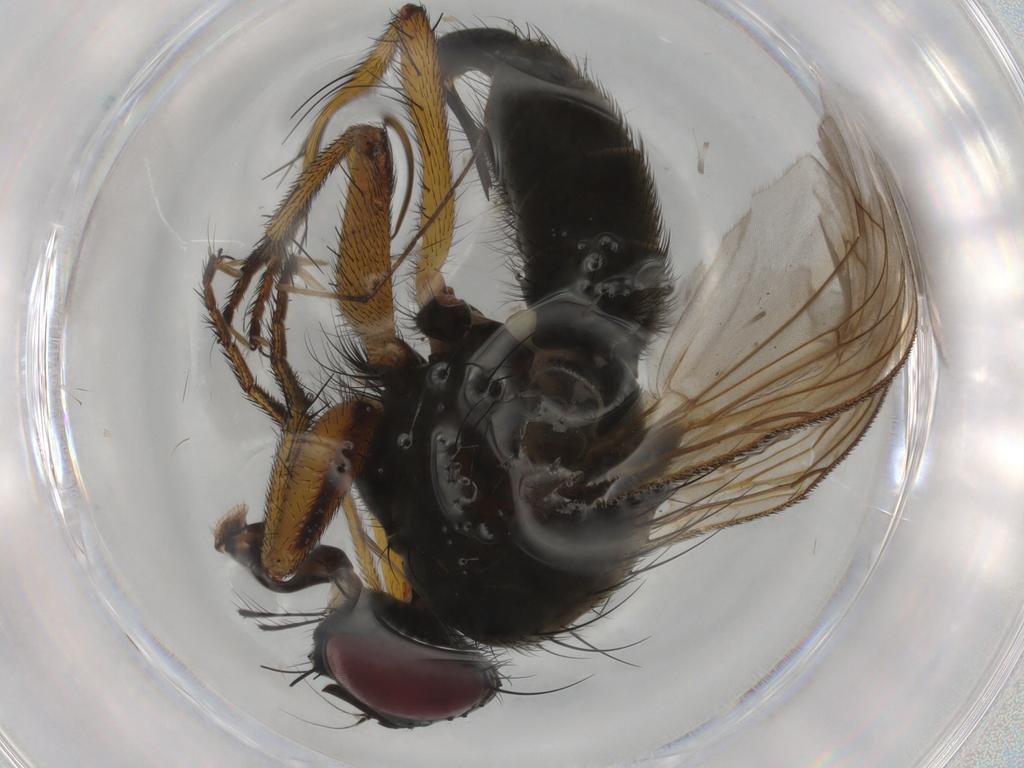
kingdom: Animalia
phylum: Arthropoda
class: Insecta
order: Diptera
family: Muscidae
